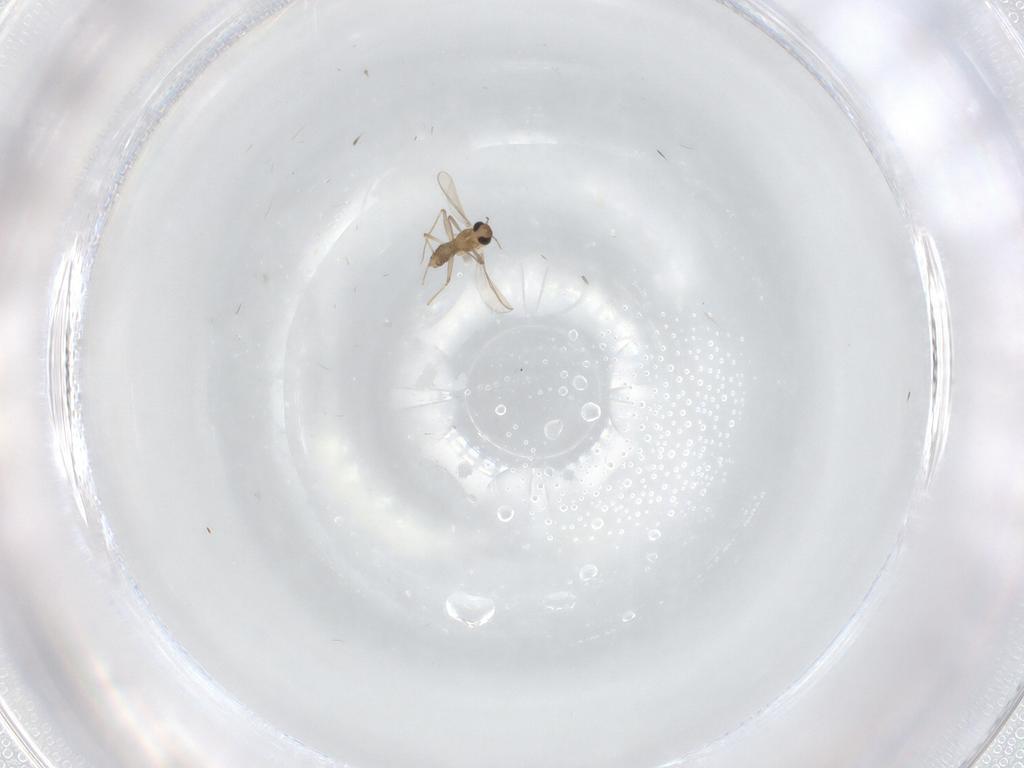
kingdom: Animalia
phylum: Arthropoda
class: Insecta
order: Diptera
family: Chironomidae
